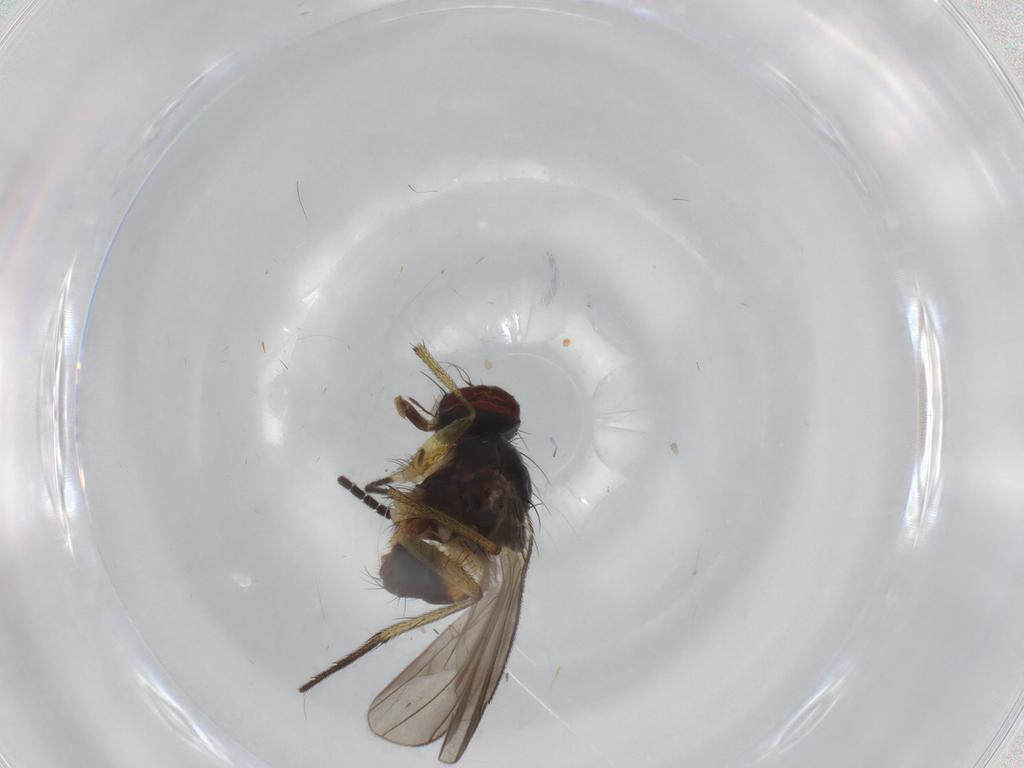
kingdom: Animalia
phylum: Arthropoda
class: Insecta
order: Diptera
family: Sciaridae
